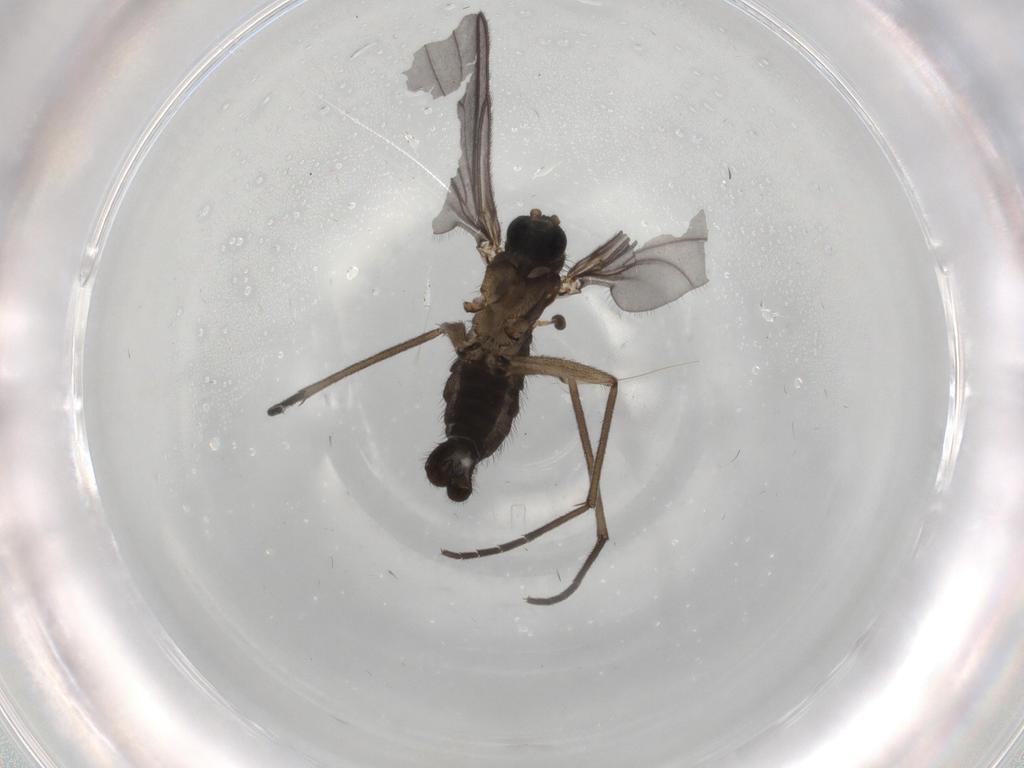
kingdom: Animalia
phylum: Arthropoda
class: Insecta
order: Diptera
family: Sciaridae
